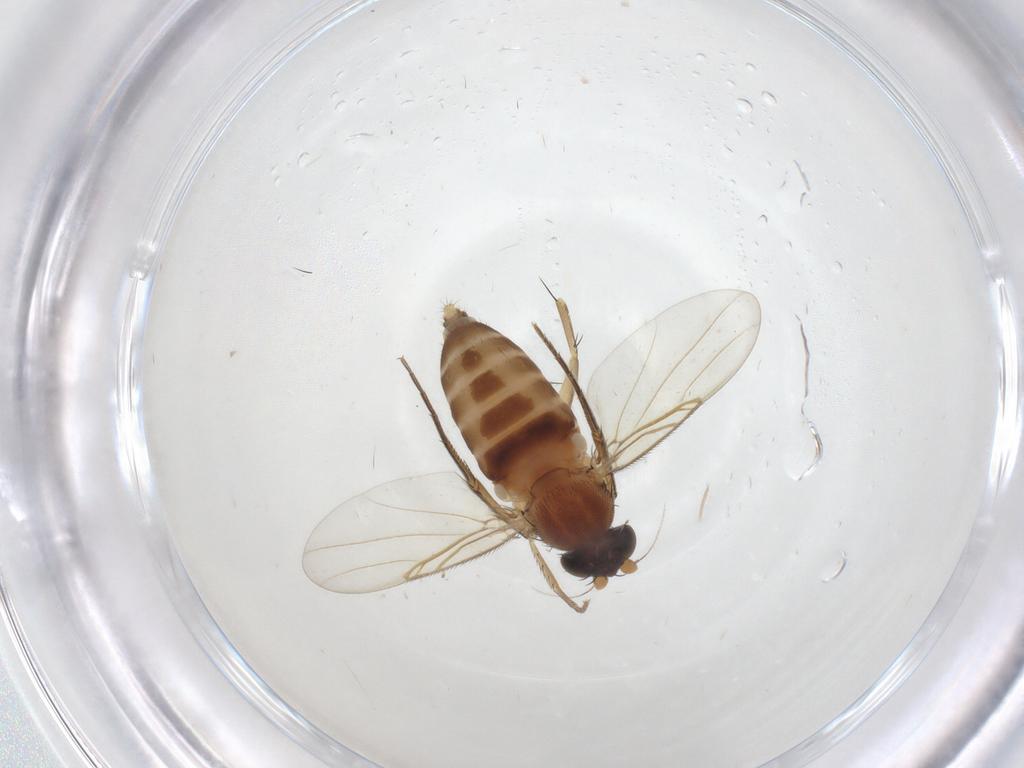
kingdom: Animalia
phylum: Arthropoda
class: Insecta
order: Diptera
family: Phoridae
